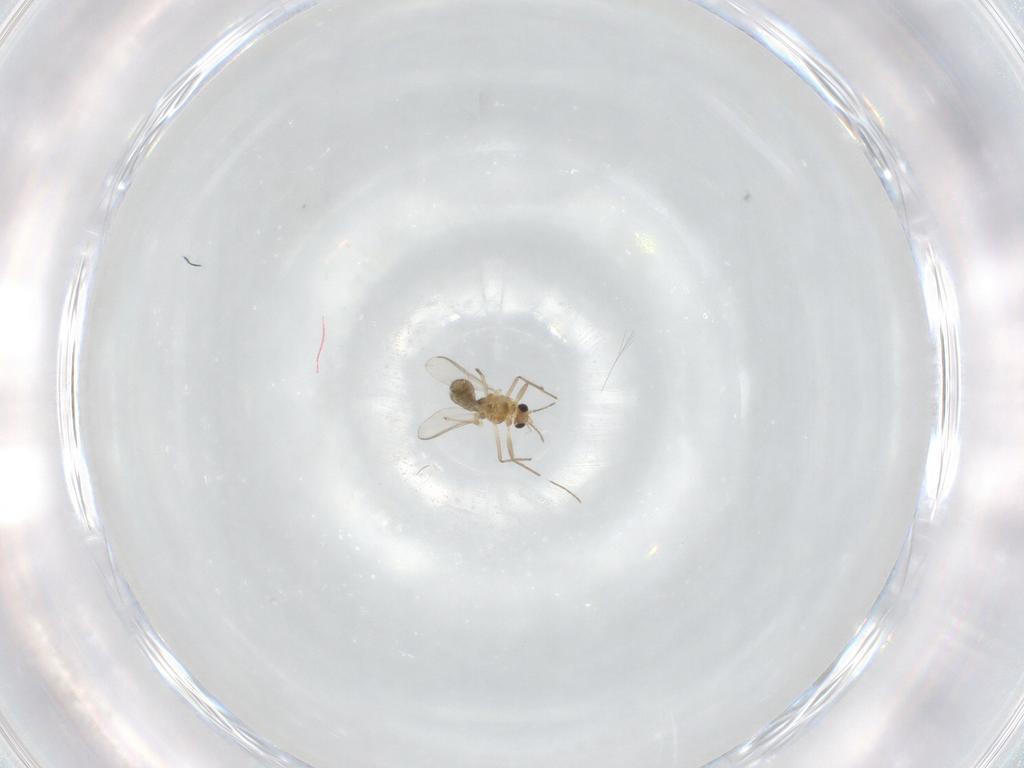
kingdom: Animalia
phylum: Arthropoda
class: Insecta
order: Diptera
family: Chironomidae
